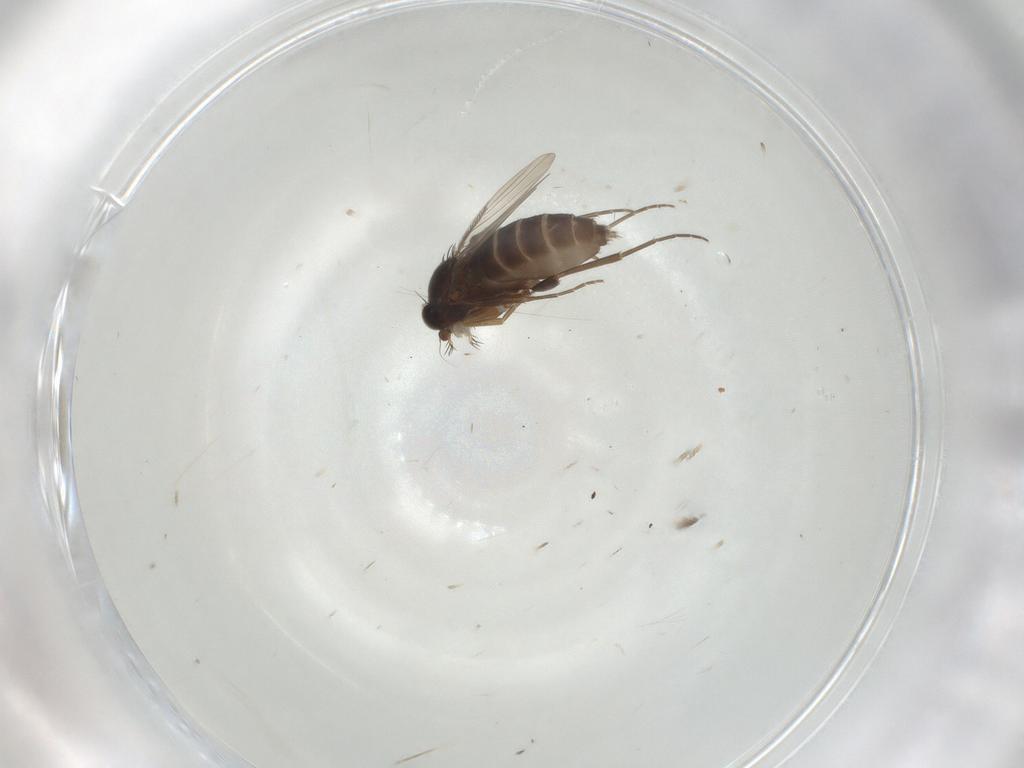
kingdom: Animalia
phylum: Arthropoda
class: Insecta
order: Diptera
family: Phoridae
